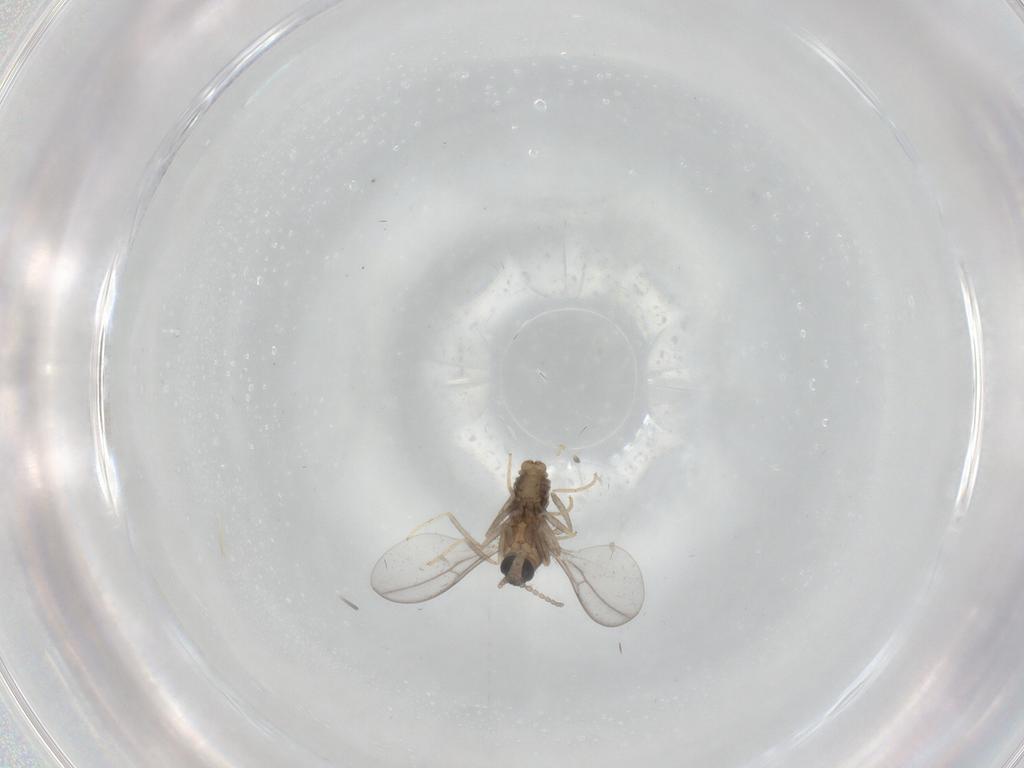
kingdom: Animalia
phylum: Arthropoda
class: Insecta
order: Diptera
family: Cecidomyiidae
